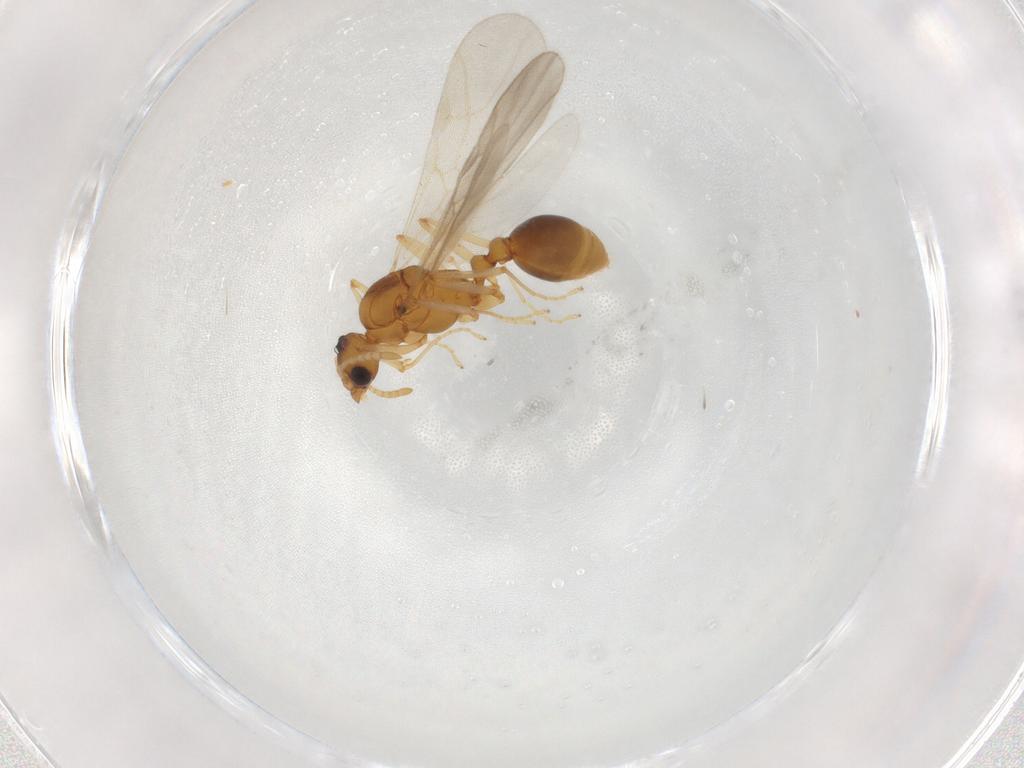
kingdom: Animalia
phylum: Arthropoda
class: Insecta
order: Hymenoptera
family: Formicidae
